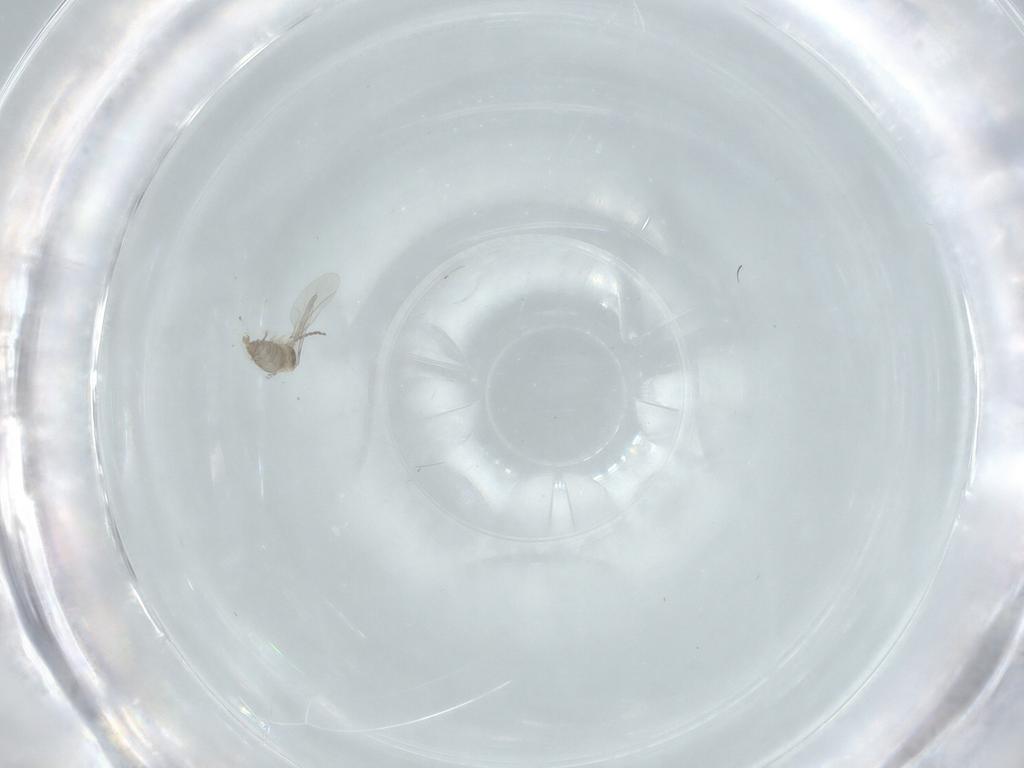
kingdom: Animalia
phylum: Arthropoda
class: Insecta
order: Diptera
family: Cecidomyiidae
